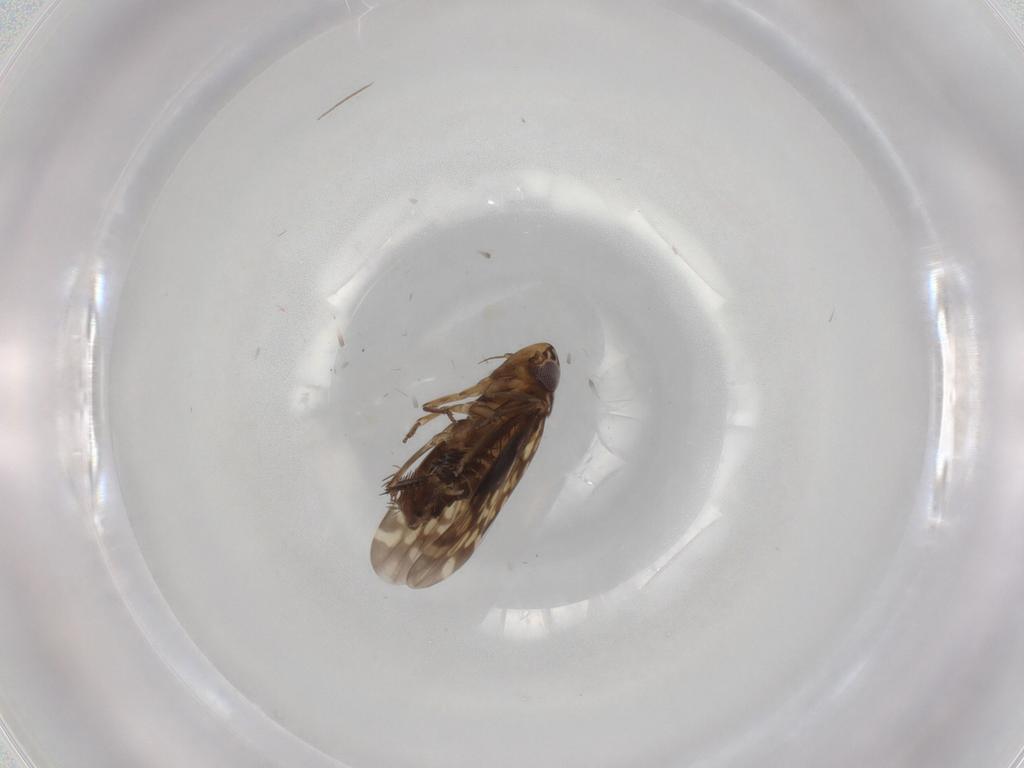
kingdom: Animalia
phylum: Arthropoda
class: Insecta
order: Hemiptera
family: Cicadellidae
